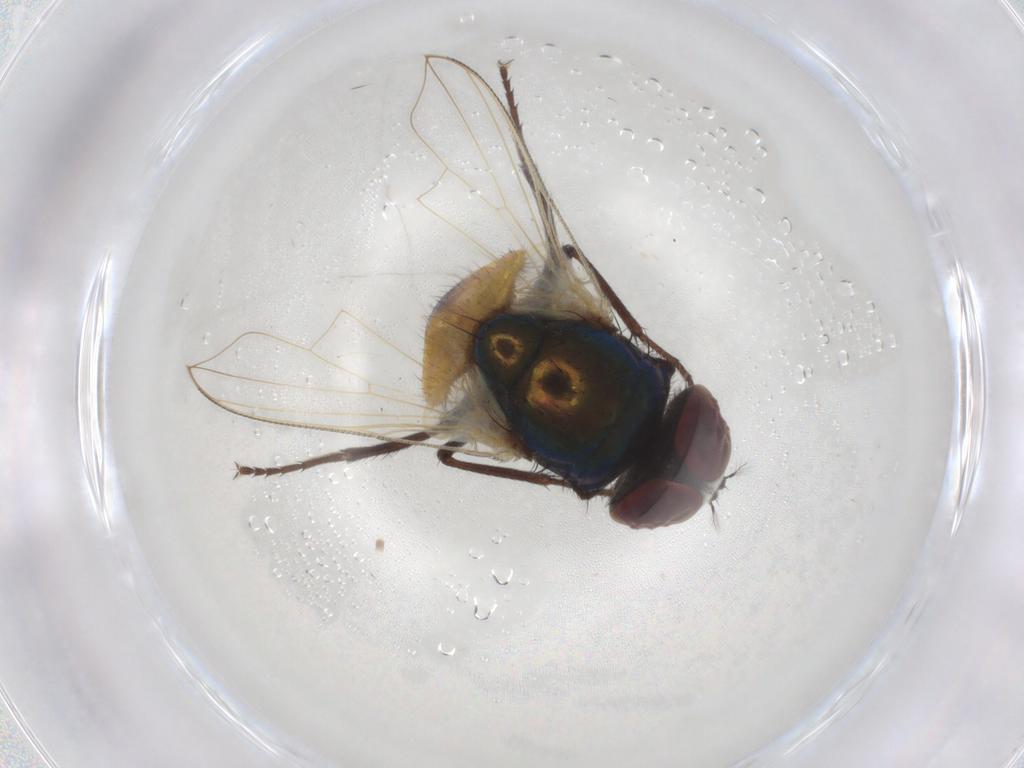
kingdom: Animalia
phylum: Arthropoda
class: Insecta
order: Diptera
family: Muscidae
